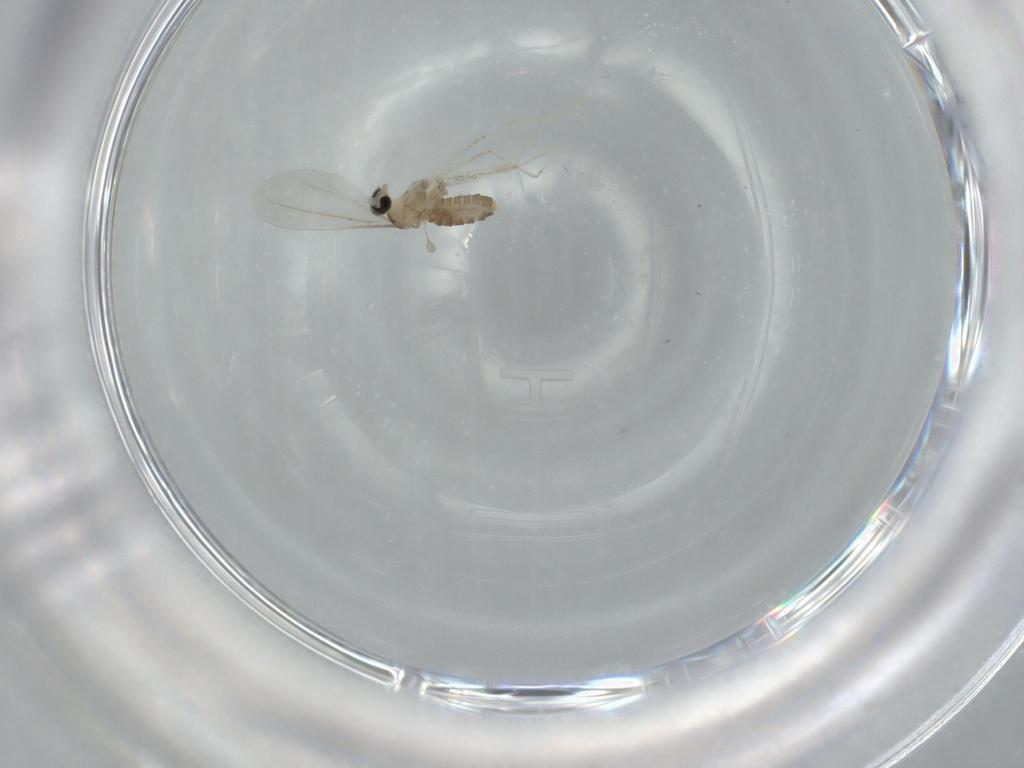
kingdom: Animalia
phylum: Arthropoda
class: Insecta
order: Diptera
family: Cecidomyiidae
